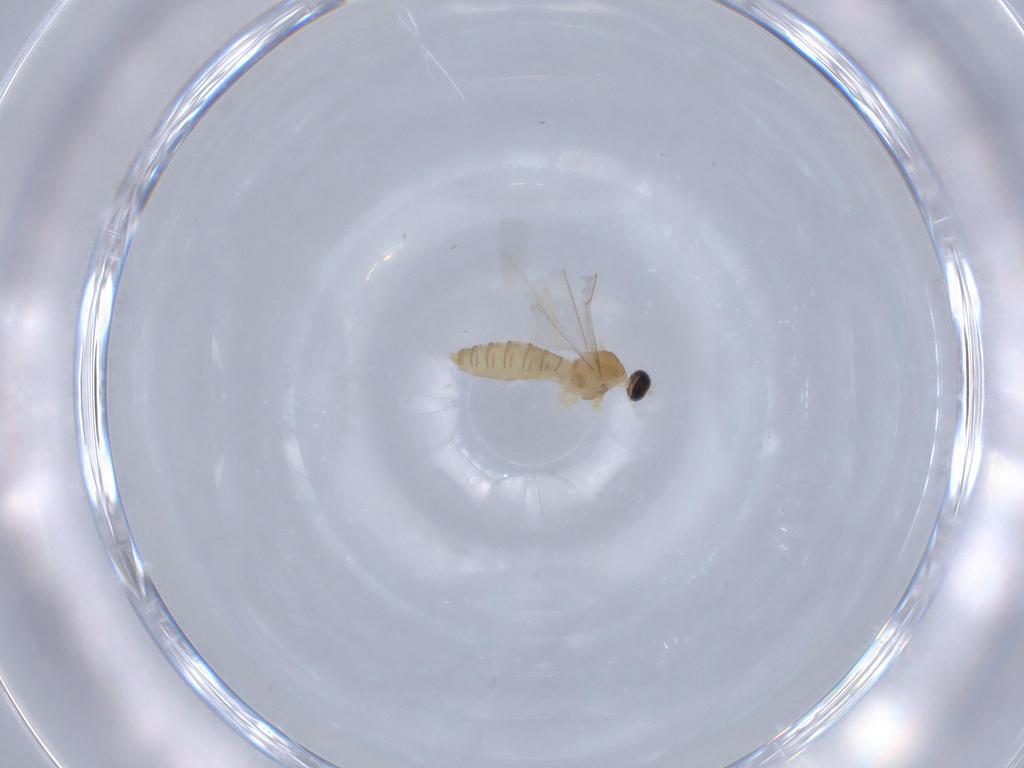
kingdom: Animalia
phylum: Arthropoda
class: Insecta
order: Diptera
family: Cecidomyiidae
